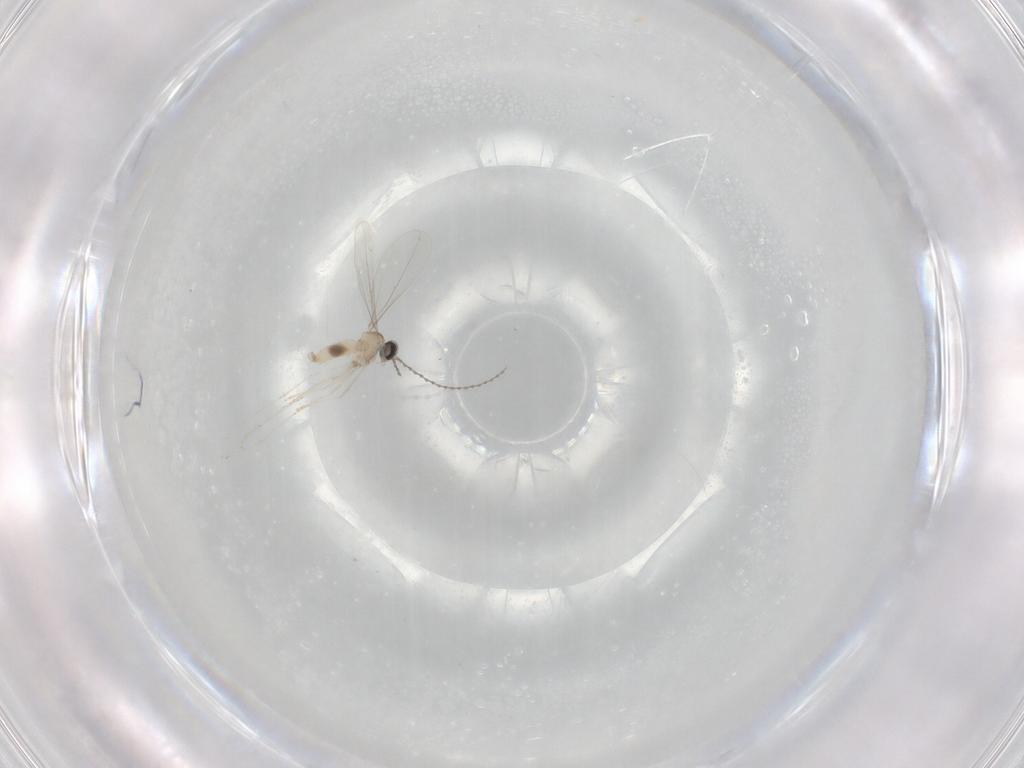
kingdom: Animalia
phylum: Arthropoda
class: Insecta
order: Diptera
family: Cecidomyiidae
